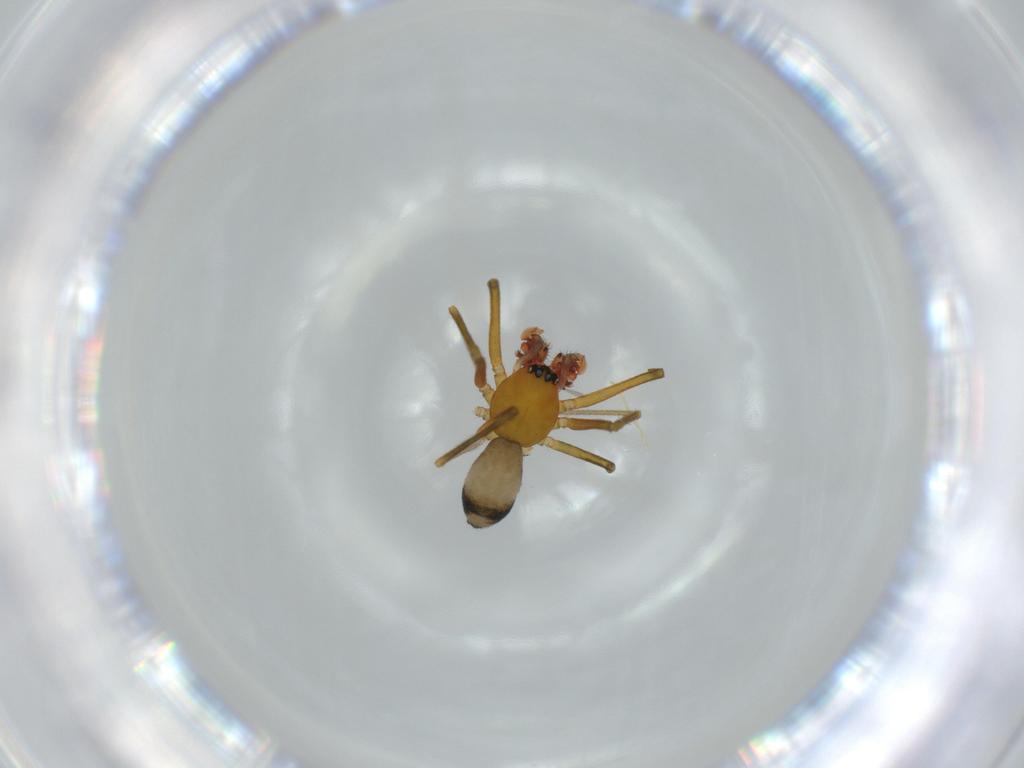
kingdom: Animalia
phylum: Arthropoda
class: Arachnida
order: Araneae
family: Linyphiidae
